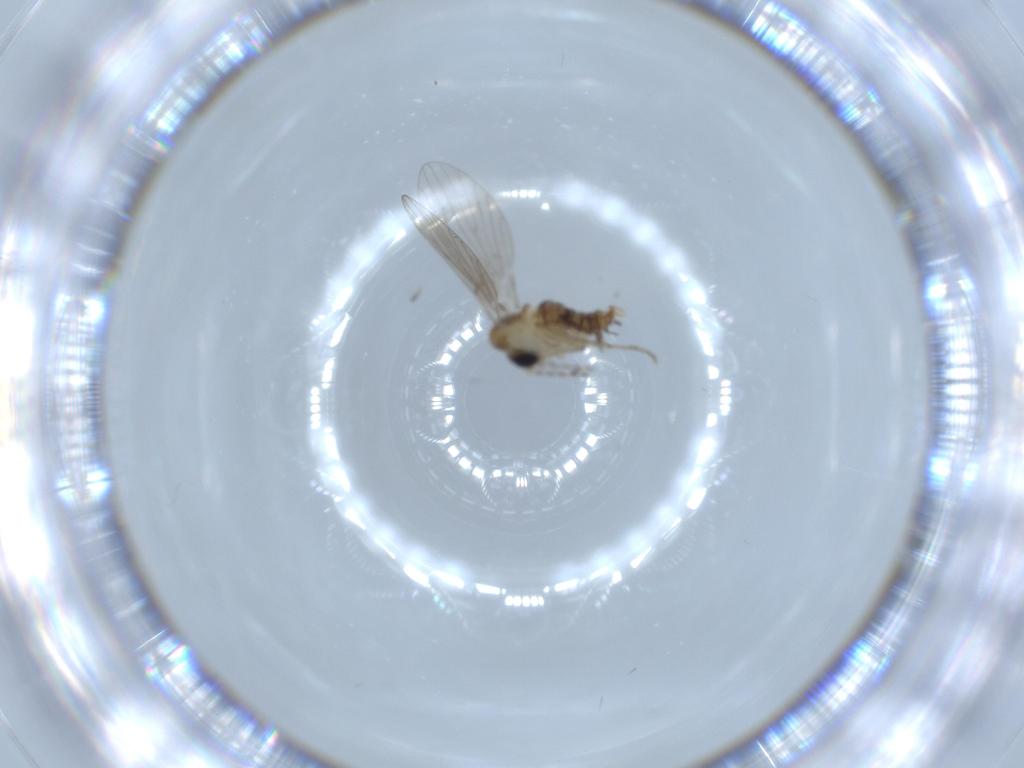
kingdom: Animalia
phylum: Arthropoda
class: Insecta
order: Diptera
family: Psychodidae
